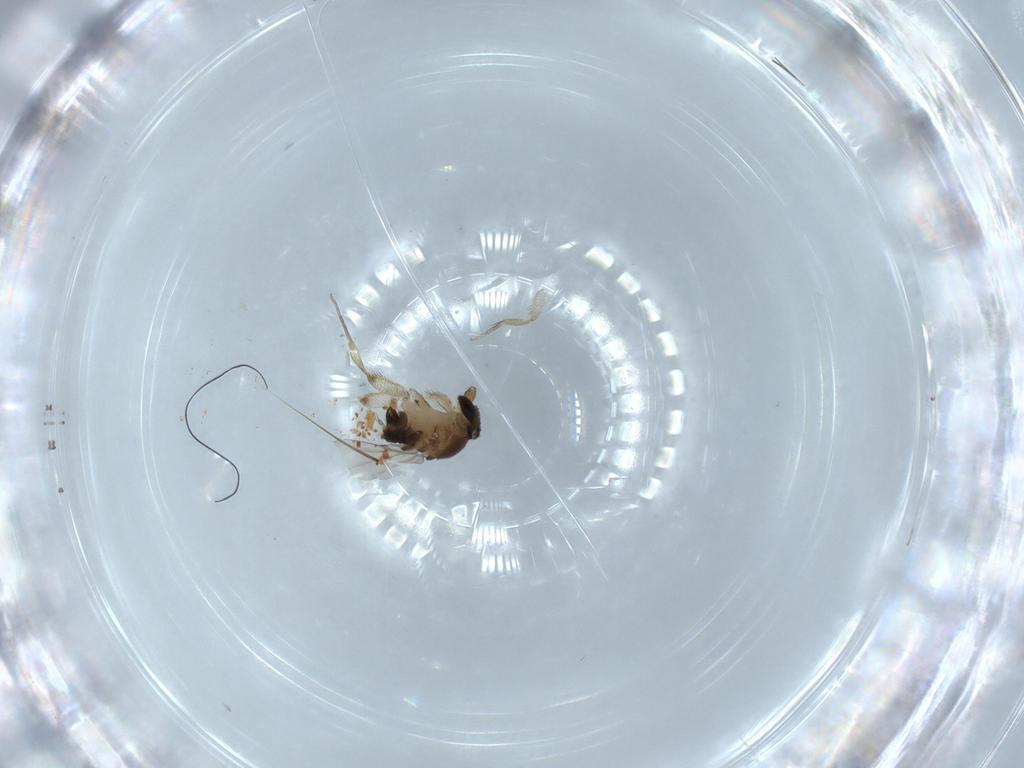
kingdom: Animalia
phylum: Arthropoda
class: Insecta
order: Diptera
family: Phoridae
